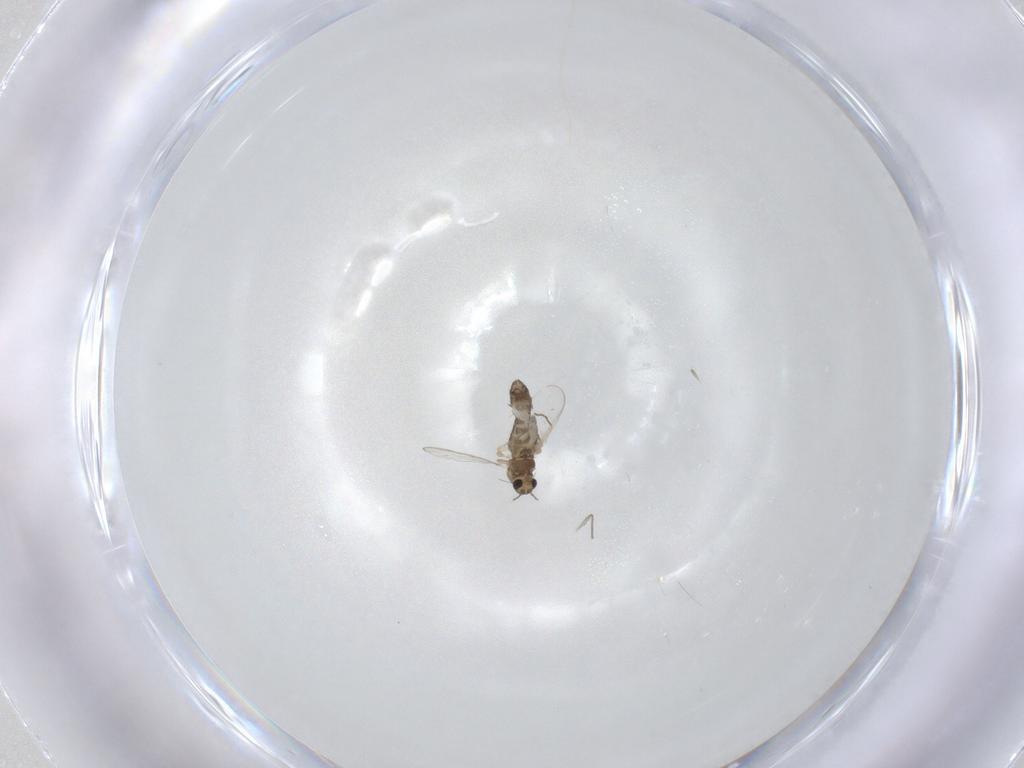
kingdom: Animalia
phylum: Arthropoda
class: Insecta
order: Diptera
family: Chironomidae
